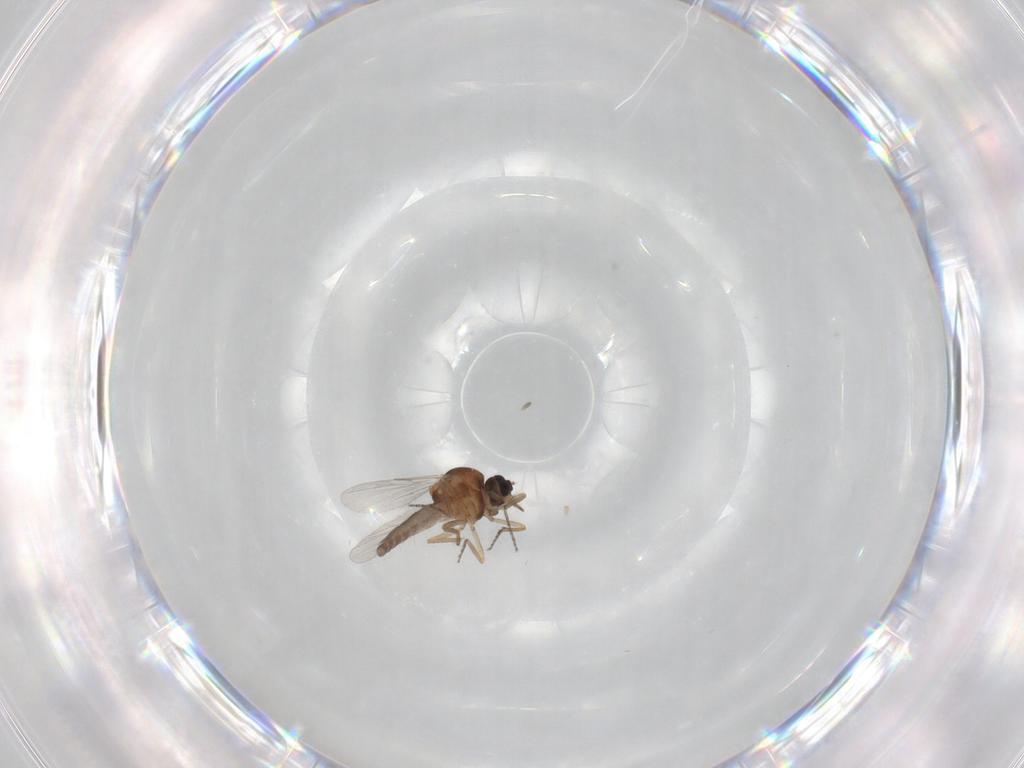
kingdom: Animalia
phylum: Arthropoda
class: Insecta
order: Diptera
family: Ceratopogonidae
